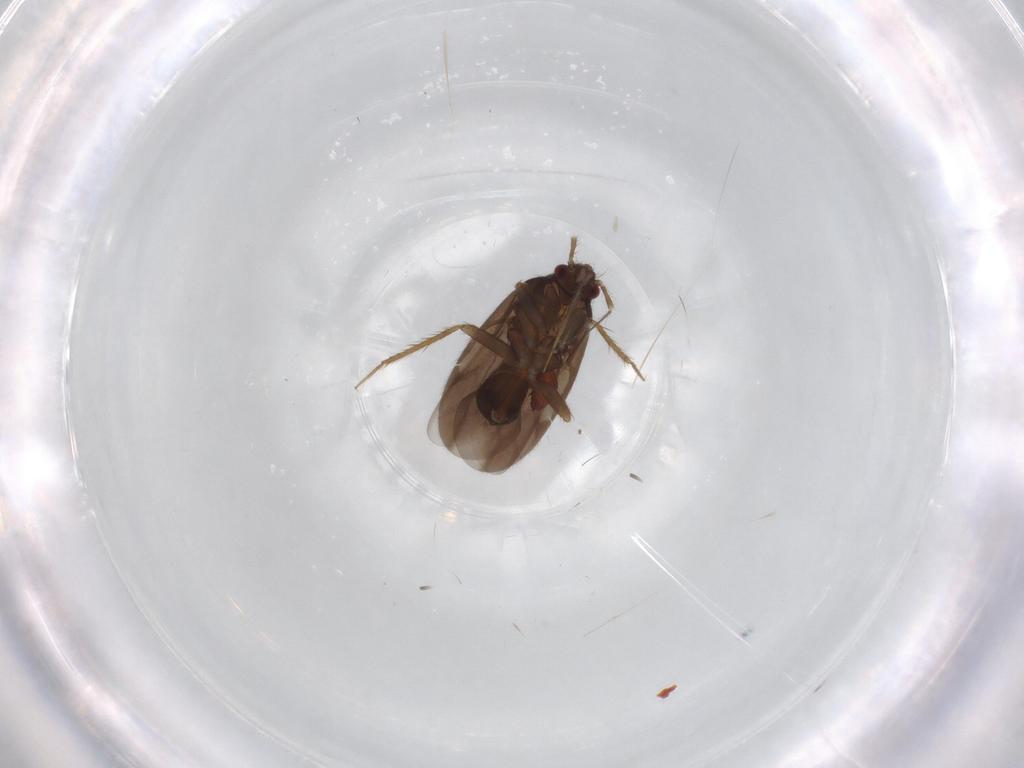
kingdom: Animalia
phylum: Arthropoda
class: Insecta
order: Hemiptera
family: Ceratocombidae
